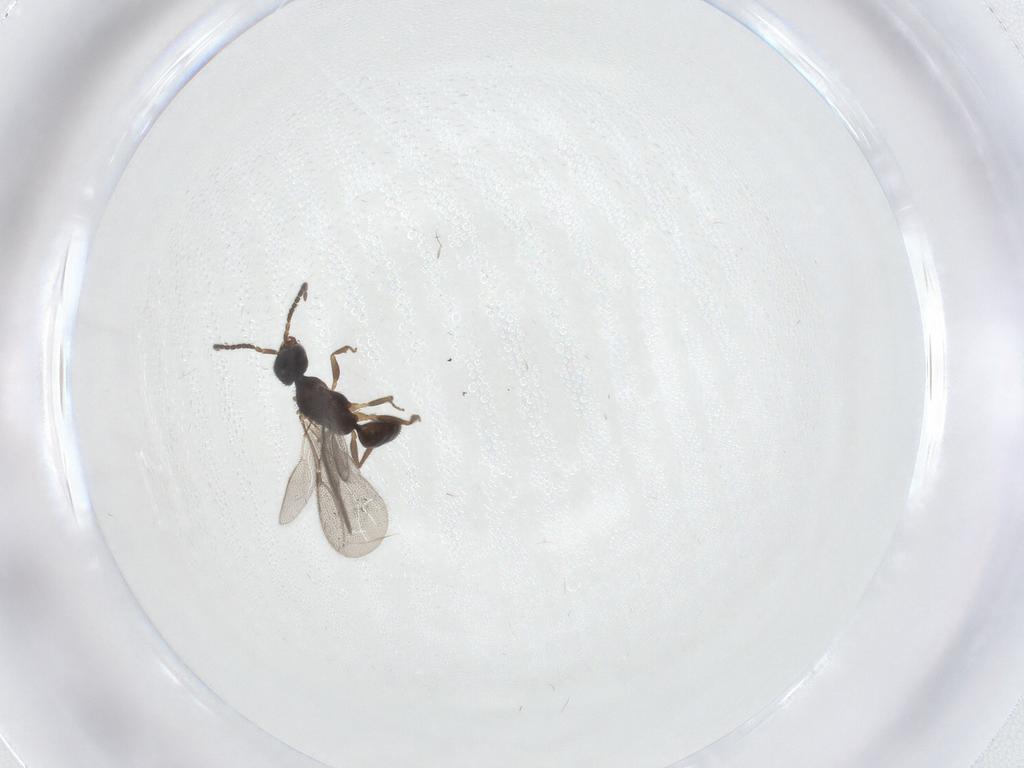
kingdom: Animalia
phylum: Arthropoda
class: Insecta
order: Hymenoptera
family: Bethylidae
